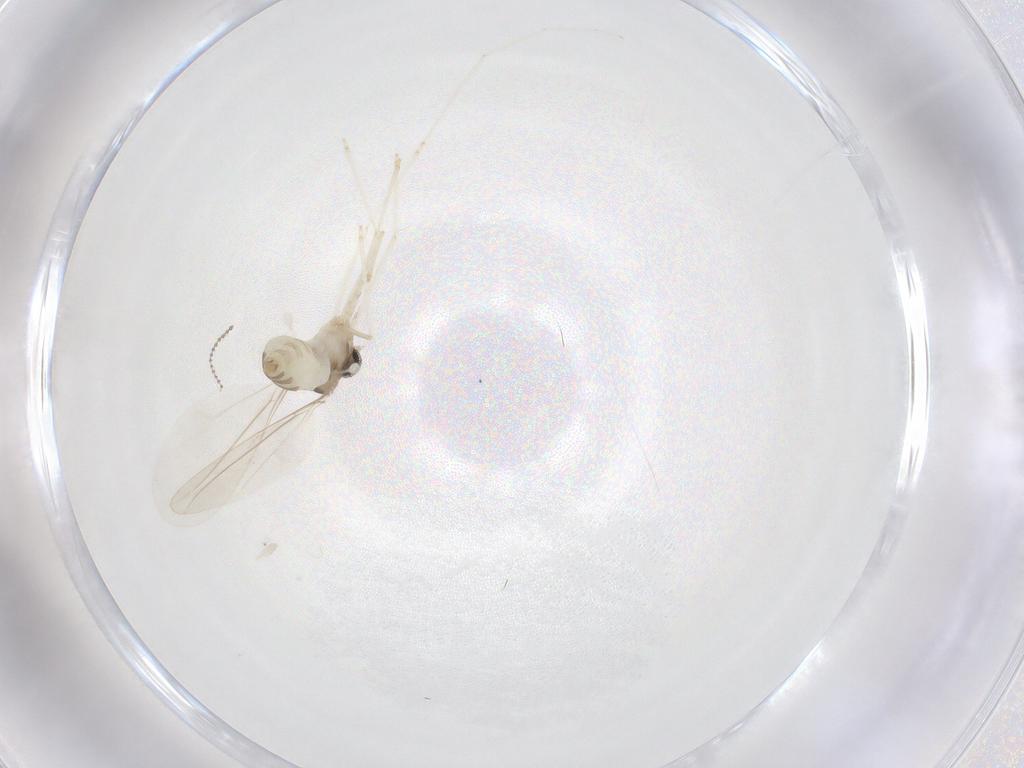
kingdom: Animalia
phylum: Arthropoda
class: Insecta
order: Diptera
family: Cecidomyiidae
